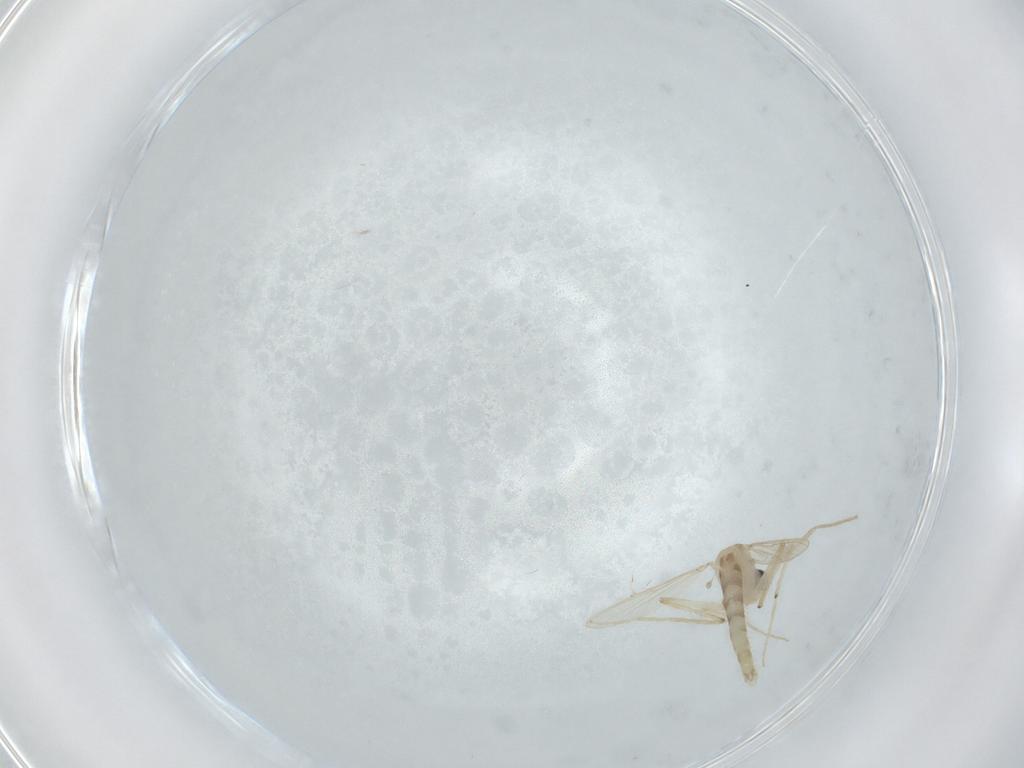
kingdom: Animalia
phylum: Arthropoda
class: Insecta
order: Diptera
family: Chironomidae
